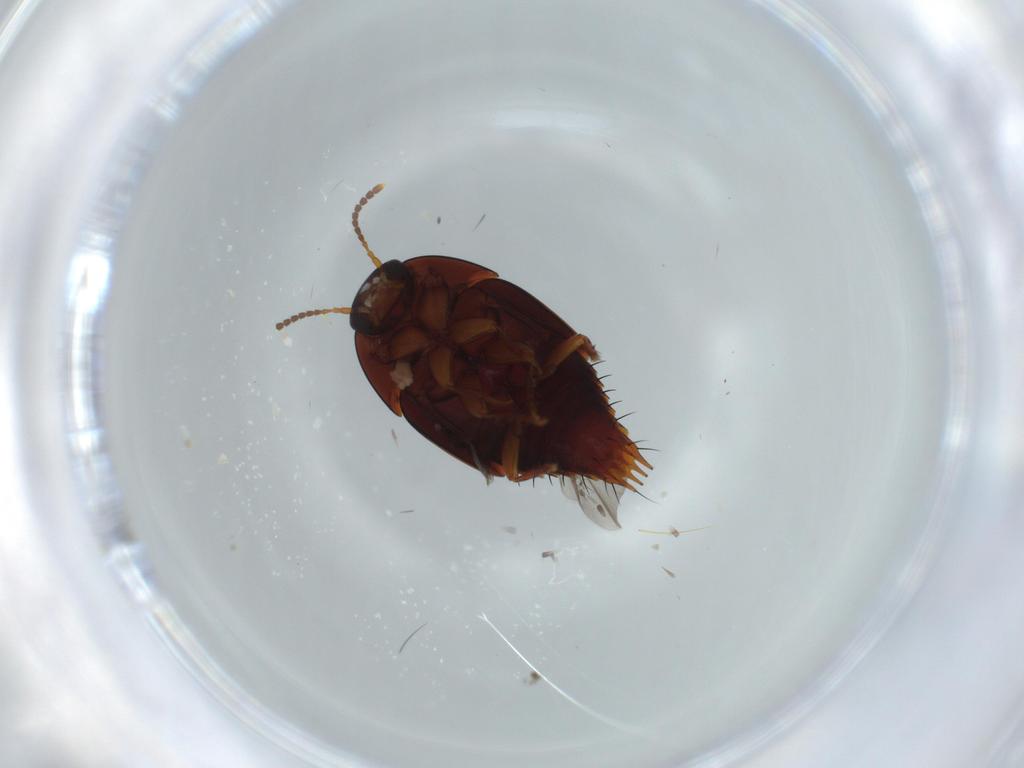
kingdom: Animalia
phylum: Arthropoda
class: Insecta
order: Coleoptera
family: Staphylinidae
